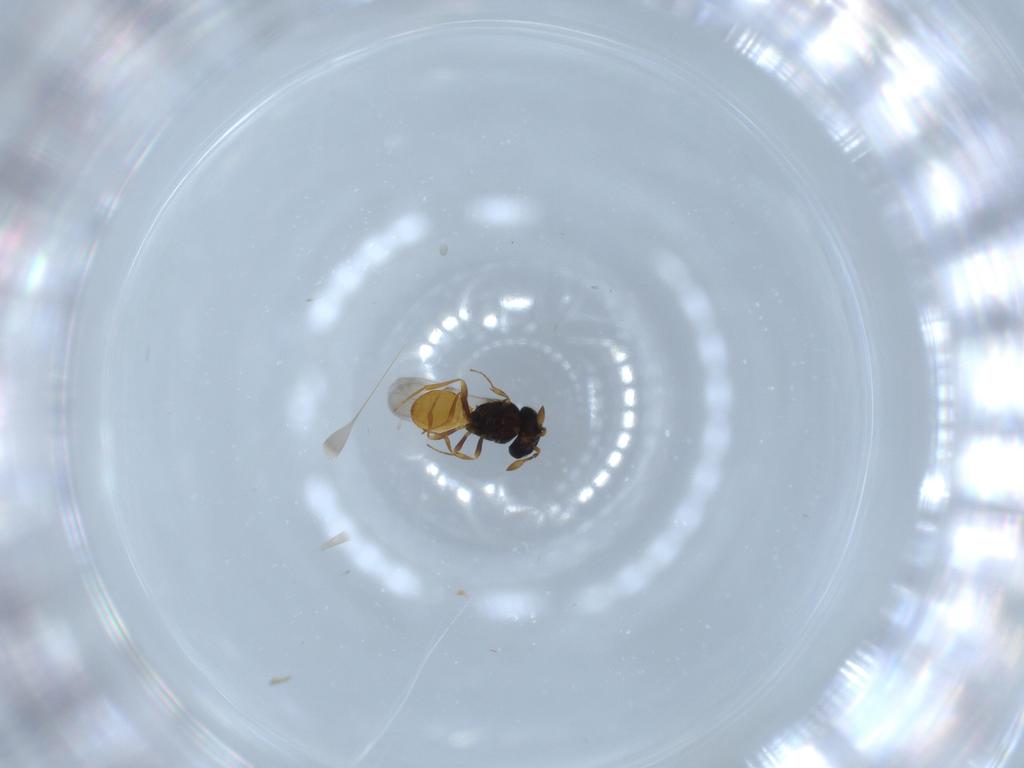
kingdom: Animalia
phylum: Arthropoda
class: Insecta
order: Hymenoptera
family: Scelionidae
